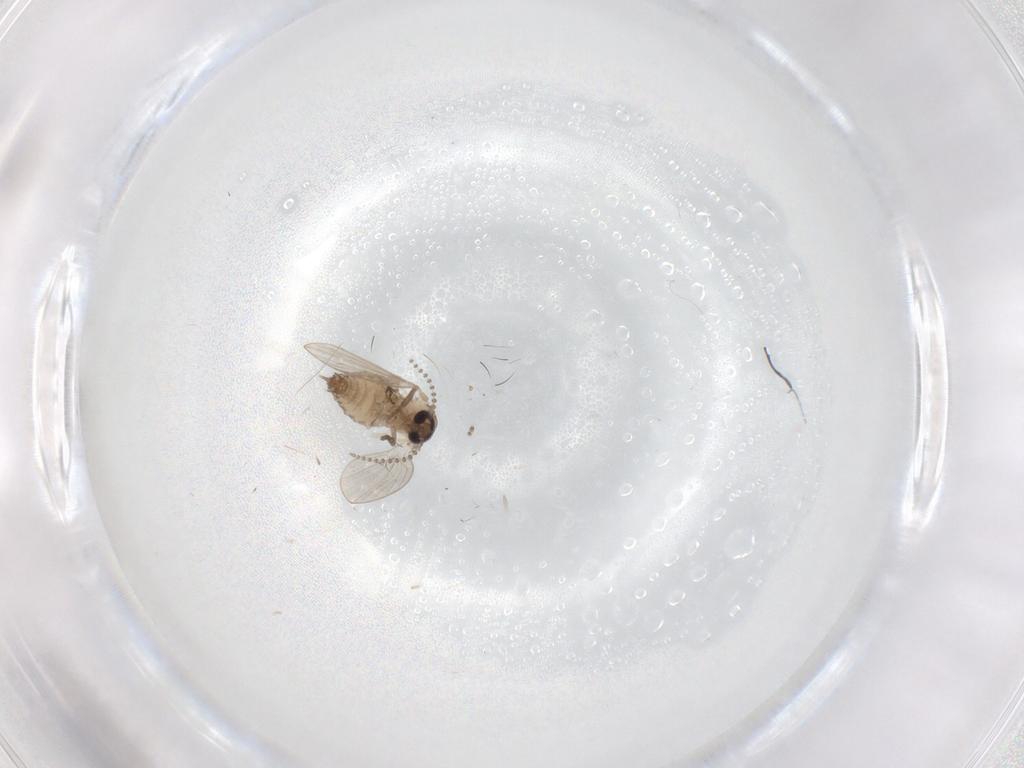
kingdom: Animalia
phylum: Arthropoda
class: Insecta
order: Diptera
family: Psychodidae
